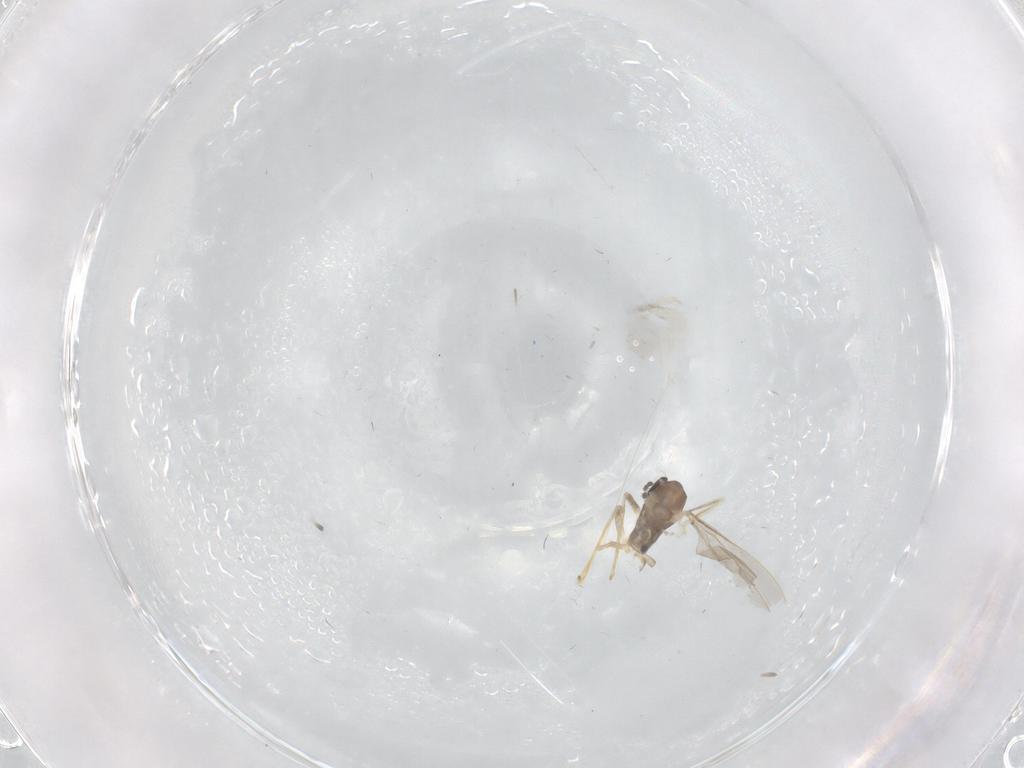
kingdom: Animalia
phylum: Arthropoda
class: Insecta
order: Diptera
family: Cecidomyiidae
